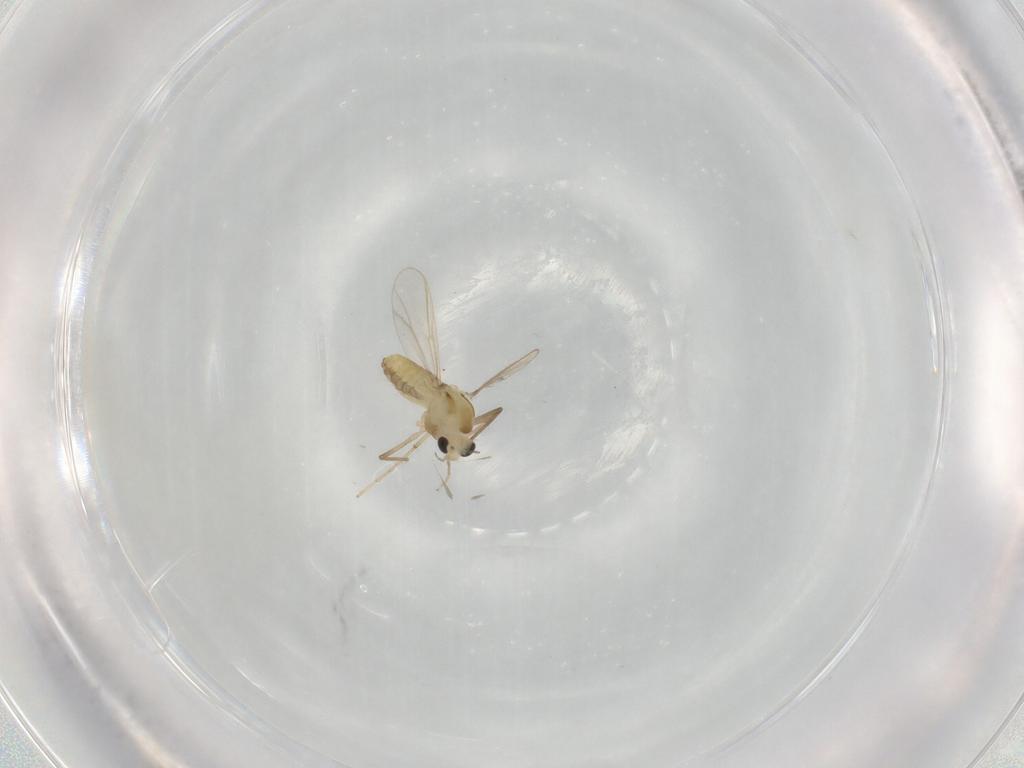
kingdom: Animalia
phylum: Arthropoda
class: Insecta
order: Diptera
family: Chironomidae
